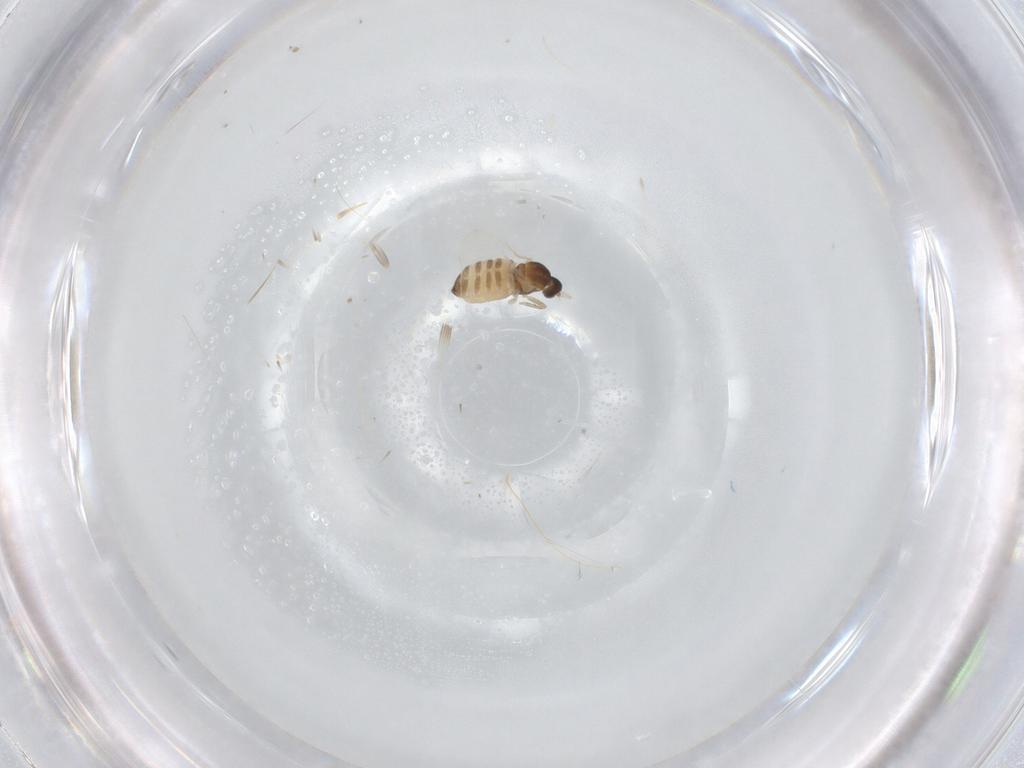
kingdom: Animalia
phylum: Arthropoda
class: Insecta
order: Diptera
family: Cecidomyiidae
